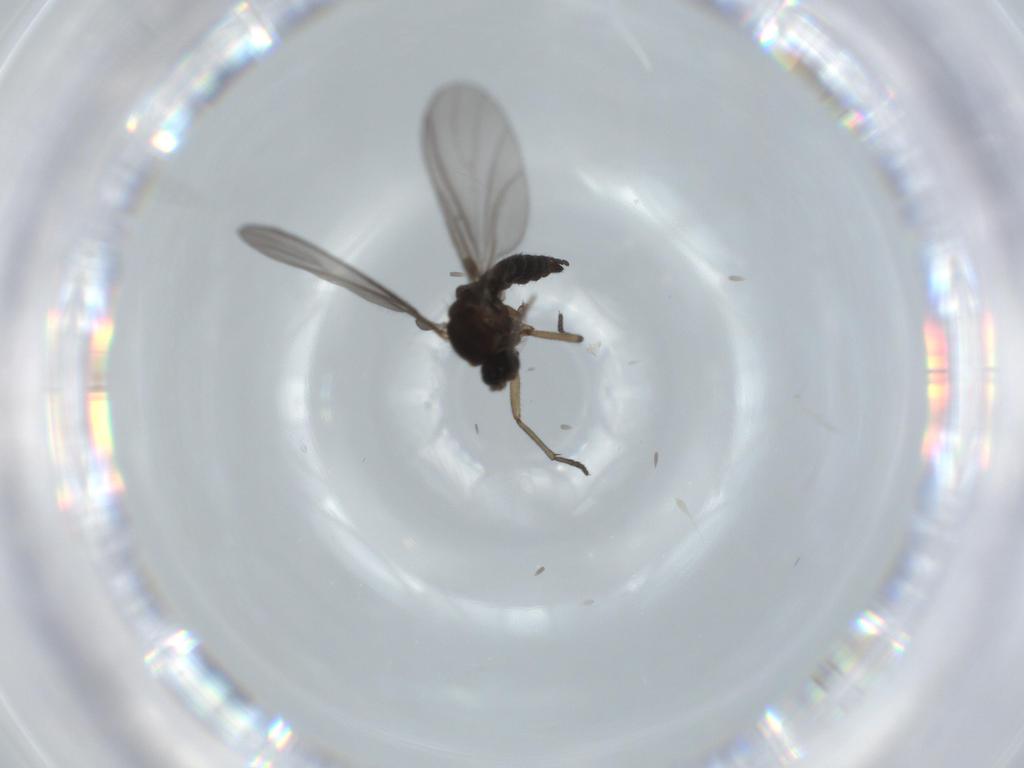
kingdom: Animalia
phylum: Arthropoda
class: Insecta
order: Diptera
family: Sciaridae
